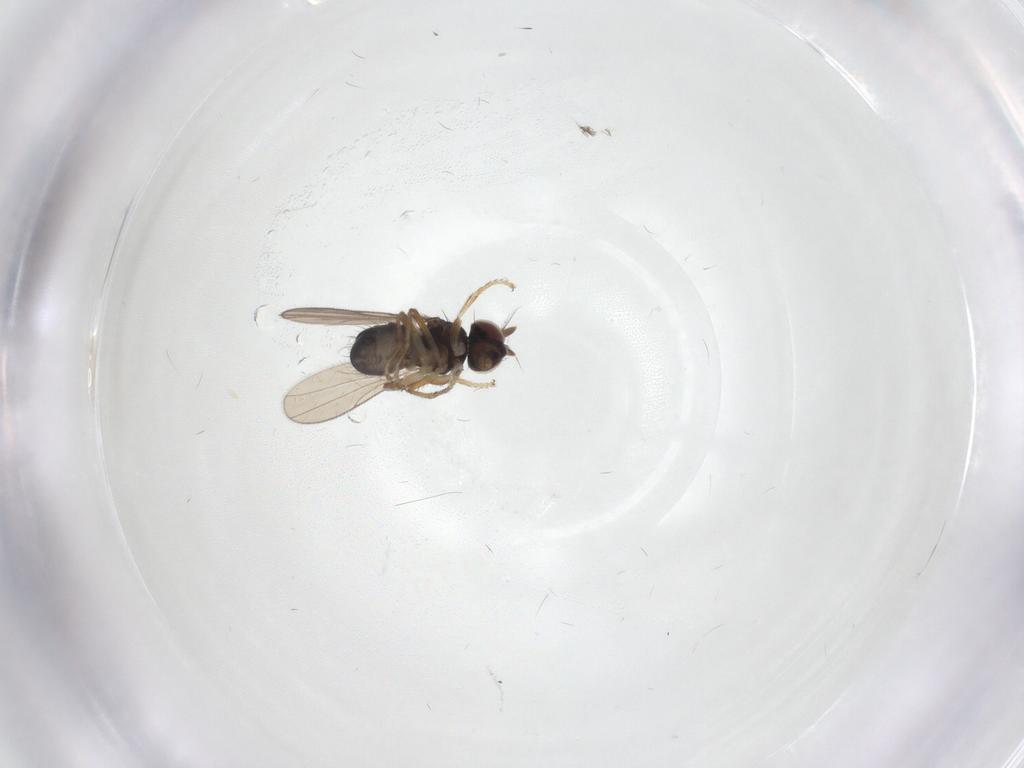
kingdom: Animalia
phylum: Arthropoda
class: Insecta
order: Diptera
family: Ephydridae
